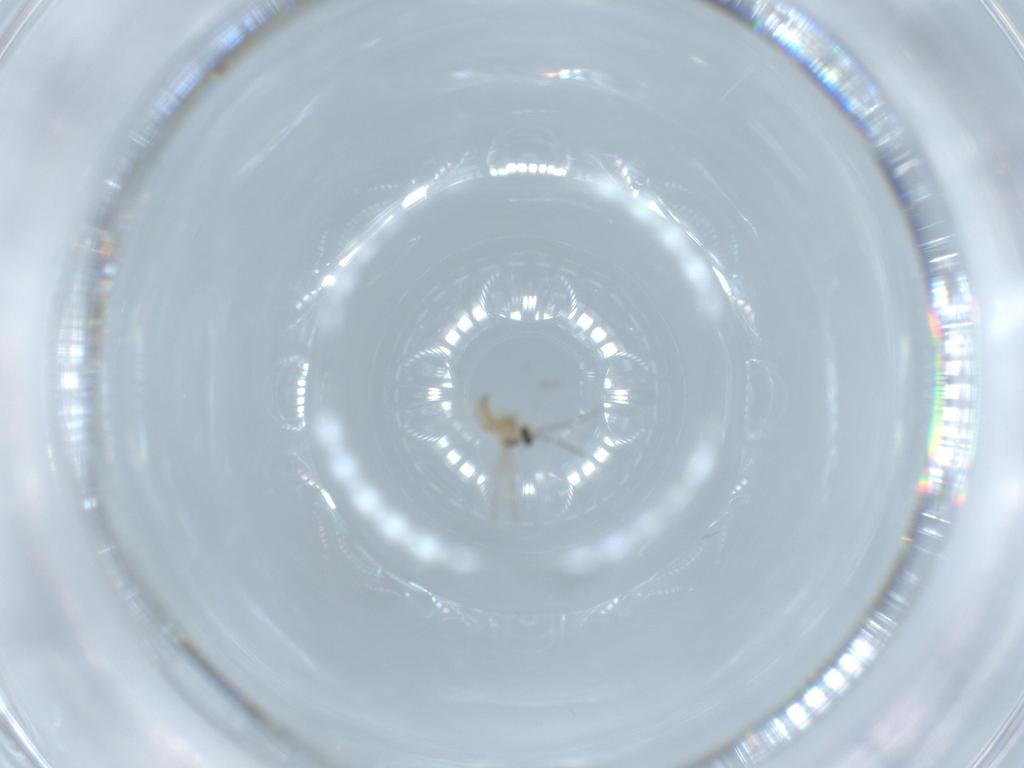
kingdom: Animalia
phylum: Arthropoda
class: Insecta
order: Diptera
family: Cecidomyiidae
